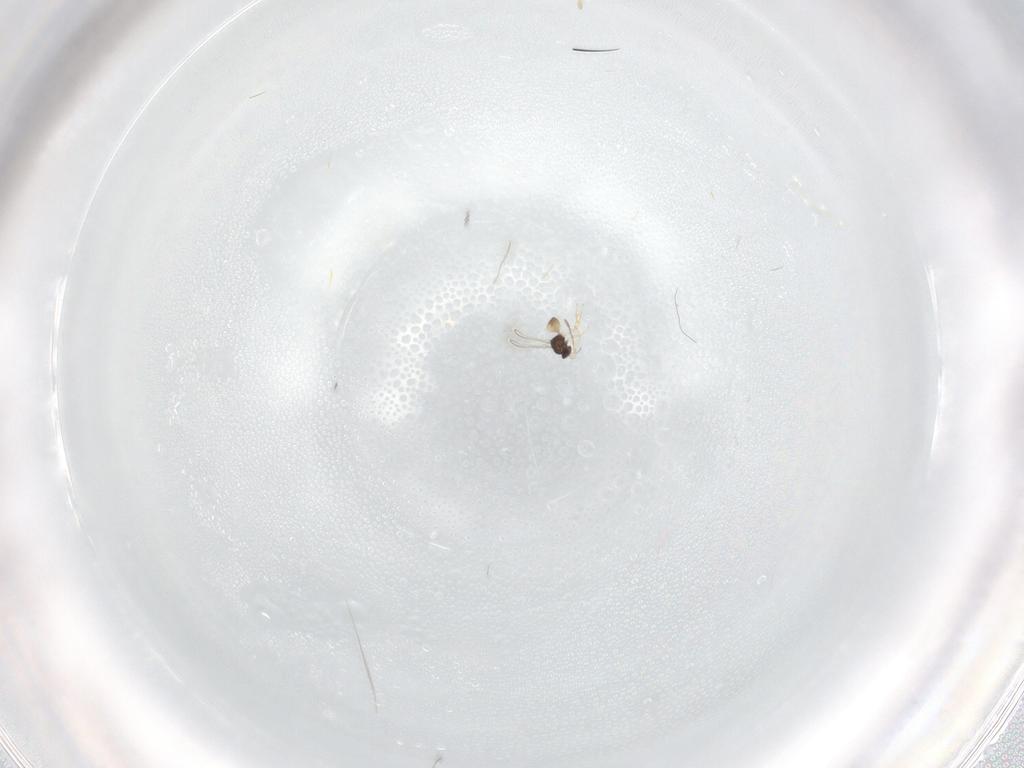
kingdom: Animalia
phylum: Arthropoda
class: Insecta
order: Hymenoptera
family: Mymaridae
